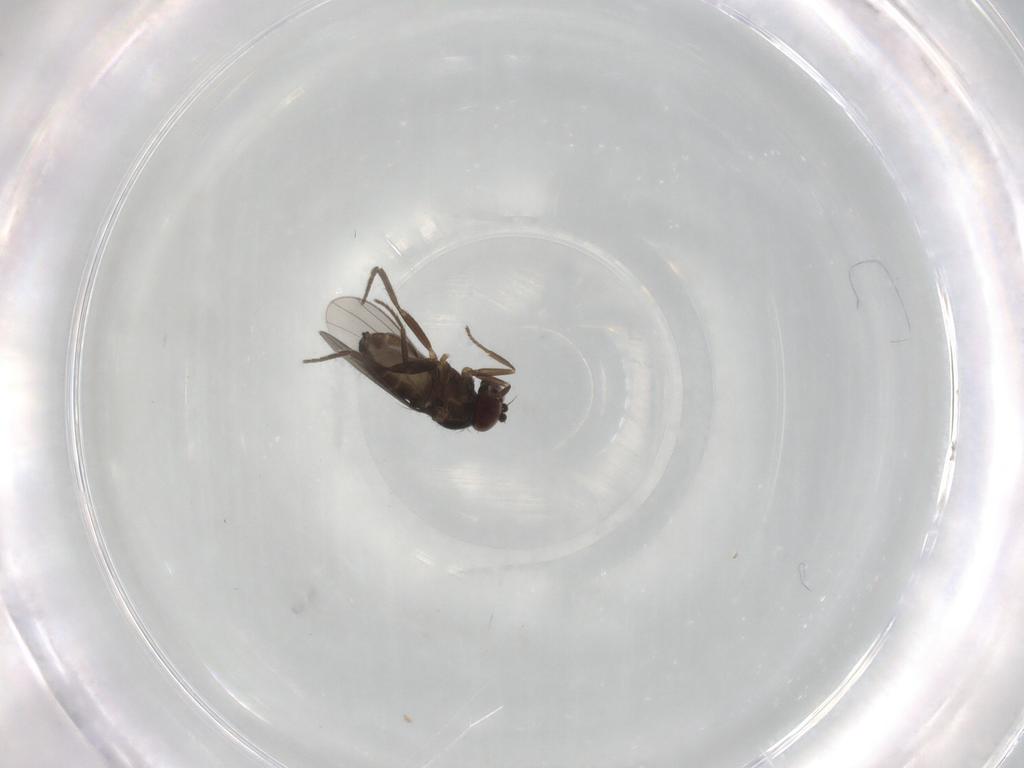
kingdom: Animalia
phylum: Arthropoda
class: Insecta
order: Diptera
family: Dolichopodidae
